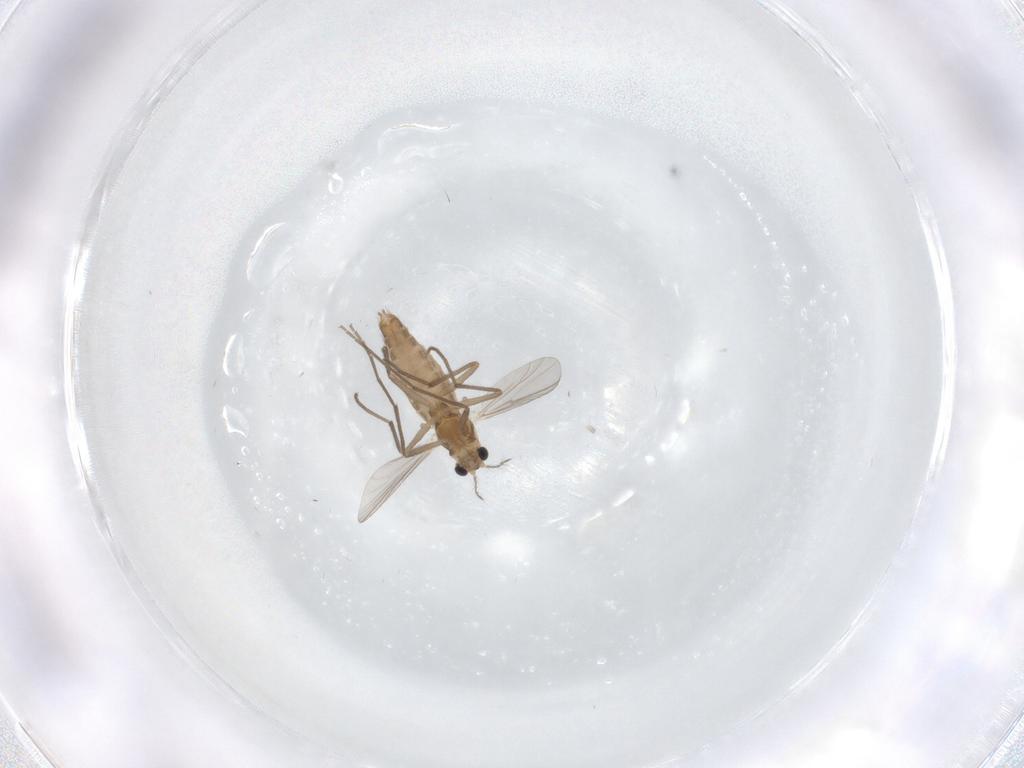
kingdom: Animalia
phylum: Arthropoda
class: Insecta
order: Diptera
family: Chironomidae
